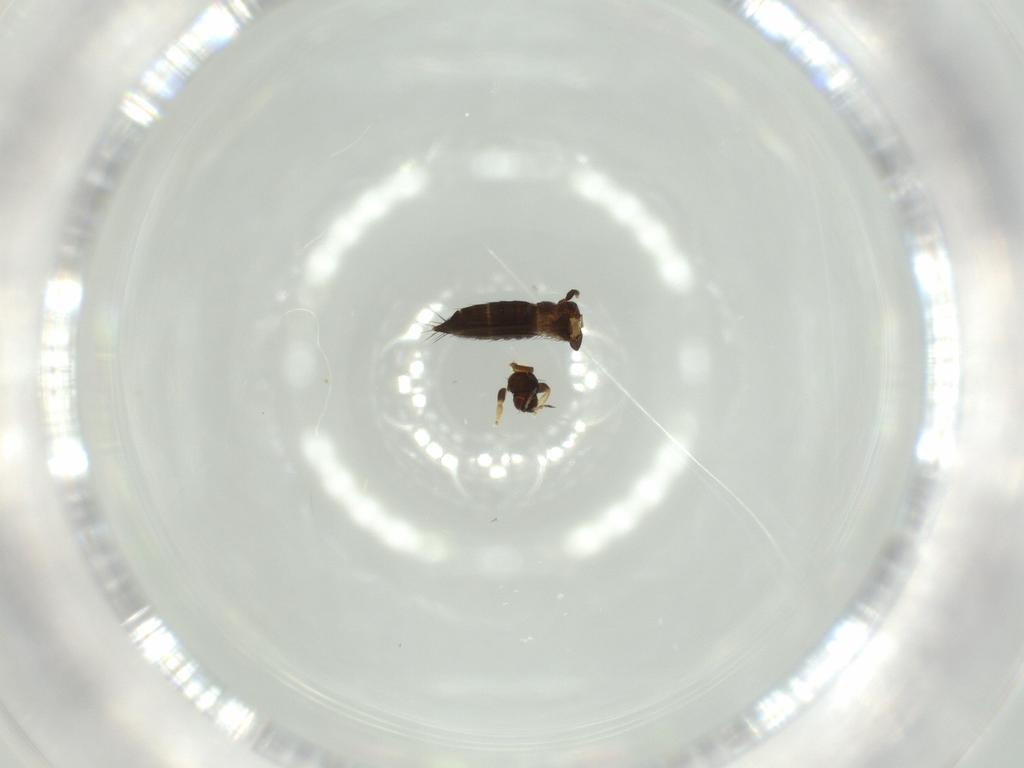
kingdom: Animalia
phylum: Arthropoda
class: Insecta
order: Thysanoptera
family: Thripidae
